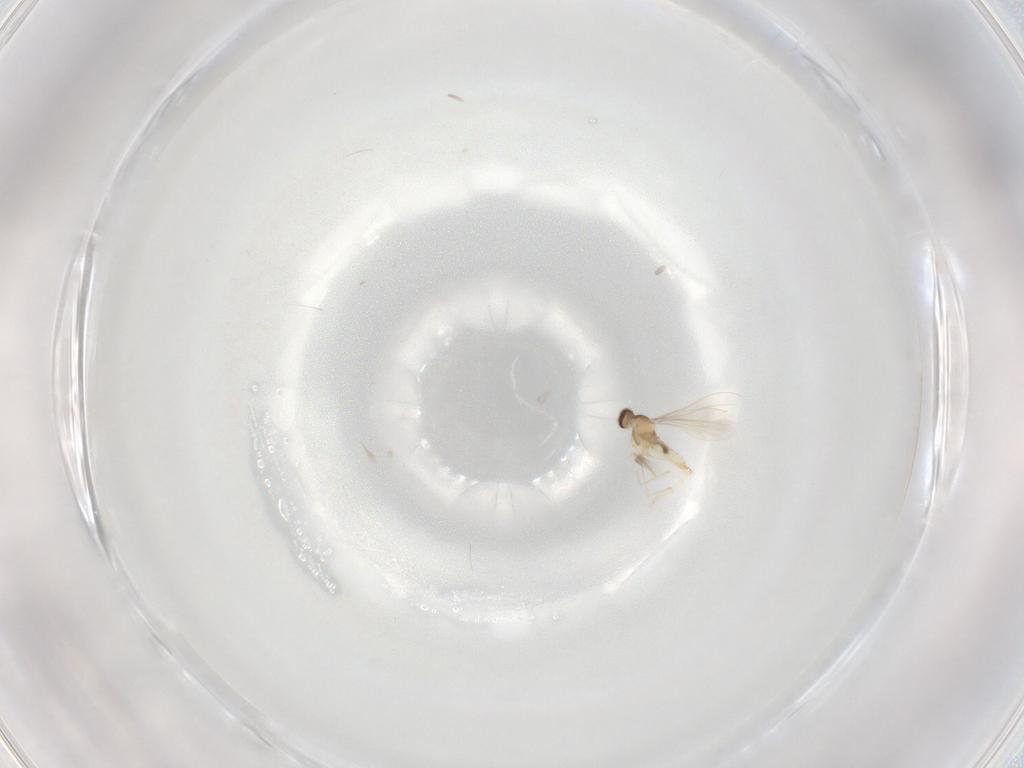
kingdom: Animalia
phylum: Arthropoda
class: Insecta
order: Diptera
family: Cecidomyiidae
